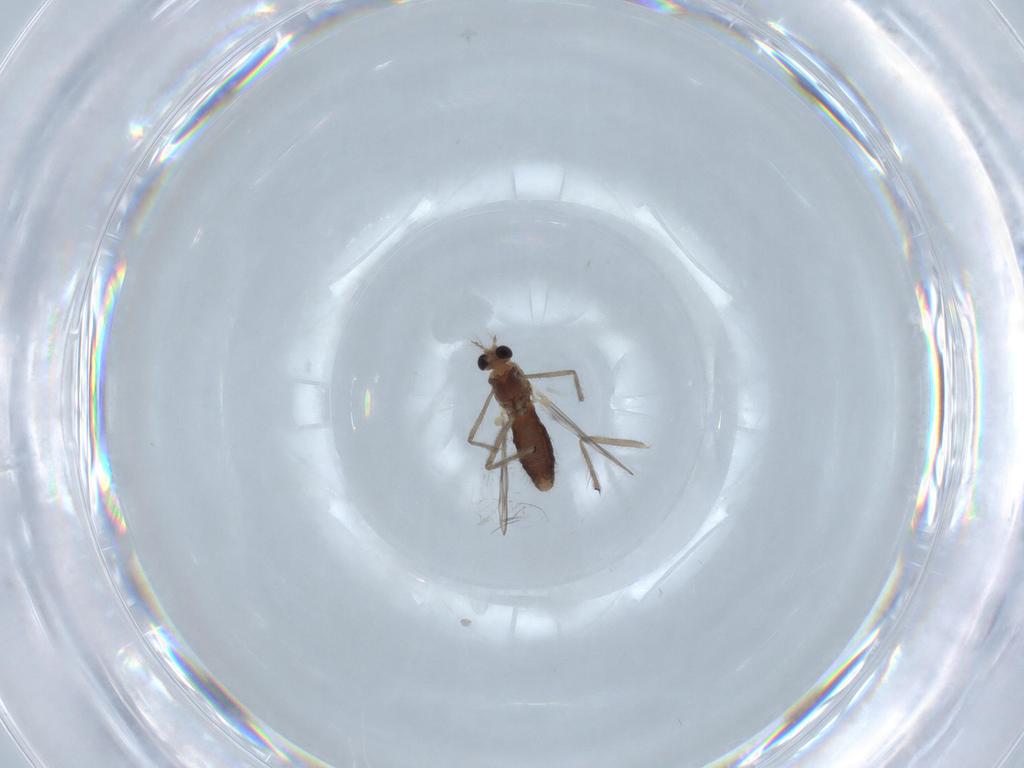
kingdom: Animalia
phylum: Arthropoda
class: Insecta
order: Diptera
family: Chironomidae
